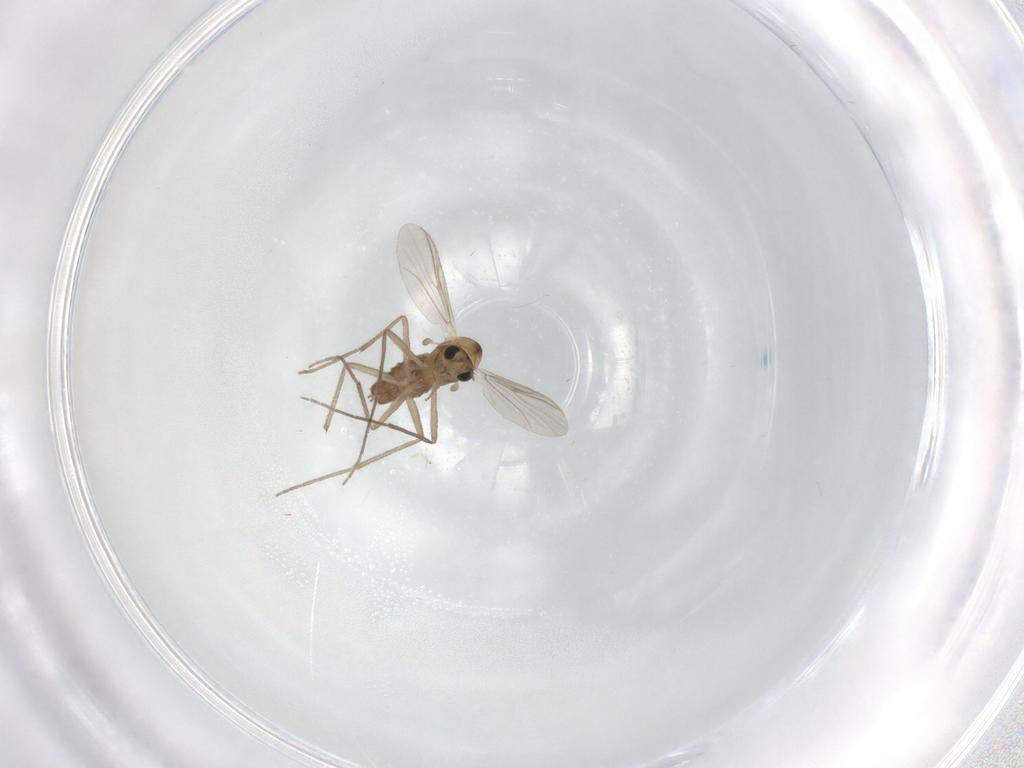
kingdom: Animalia
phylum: Arthropoda
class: Insecta
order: Diptera
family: Chironomidae
